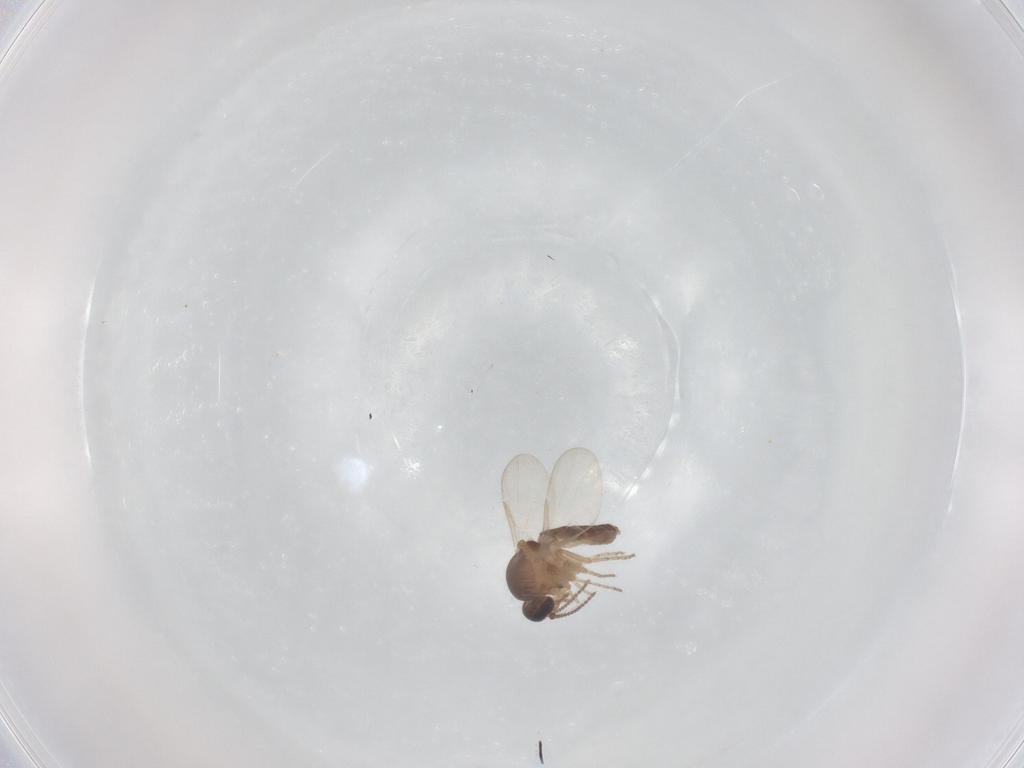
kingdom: Animalia
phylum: Arthropoda
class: Insecta
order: Diptera
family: Ceratopogonidae
